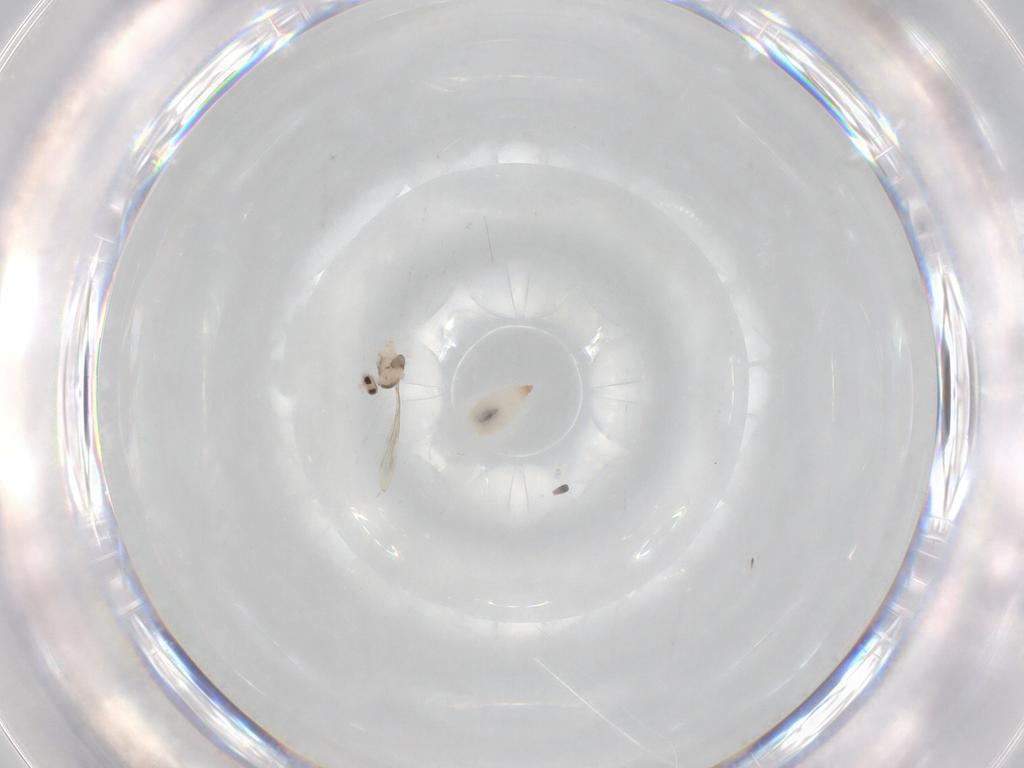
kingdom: Animalia
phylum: Arthropoda
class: Insecta
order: Diptera
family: Cecidomyiidae
